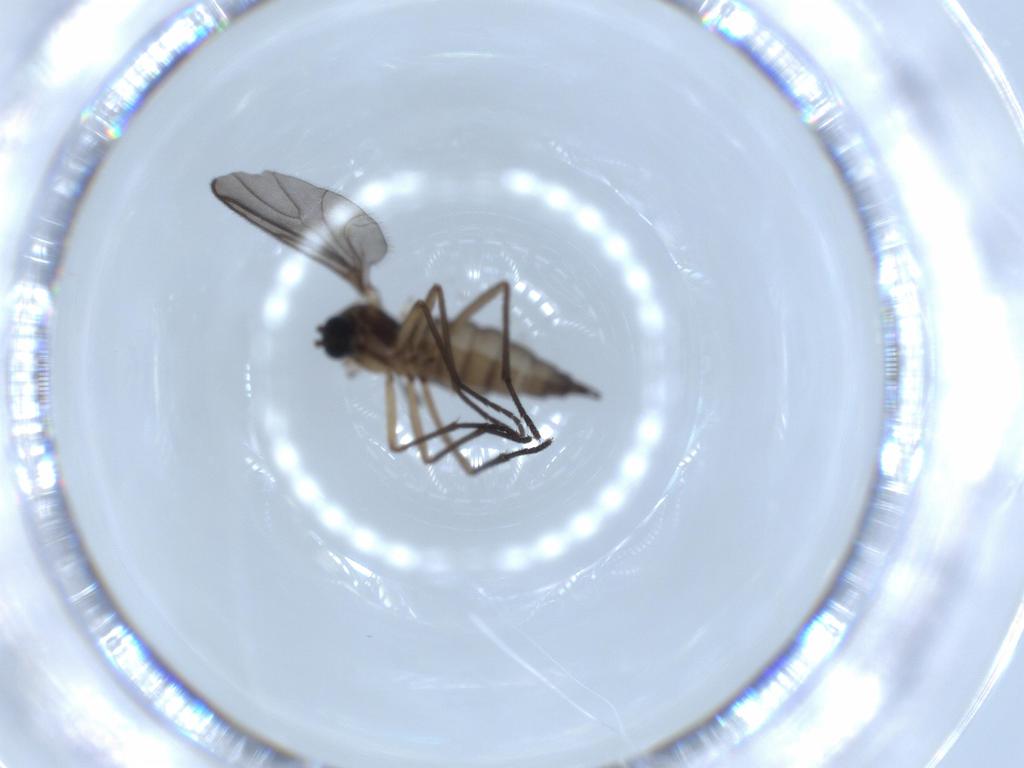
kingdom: Animalia
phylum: Arthropoda
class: Insecta
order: Diptera
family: Sciaridae
